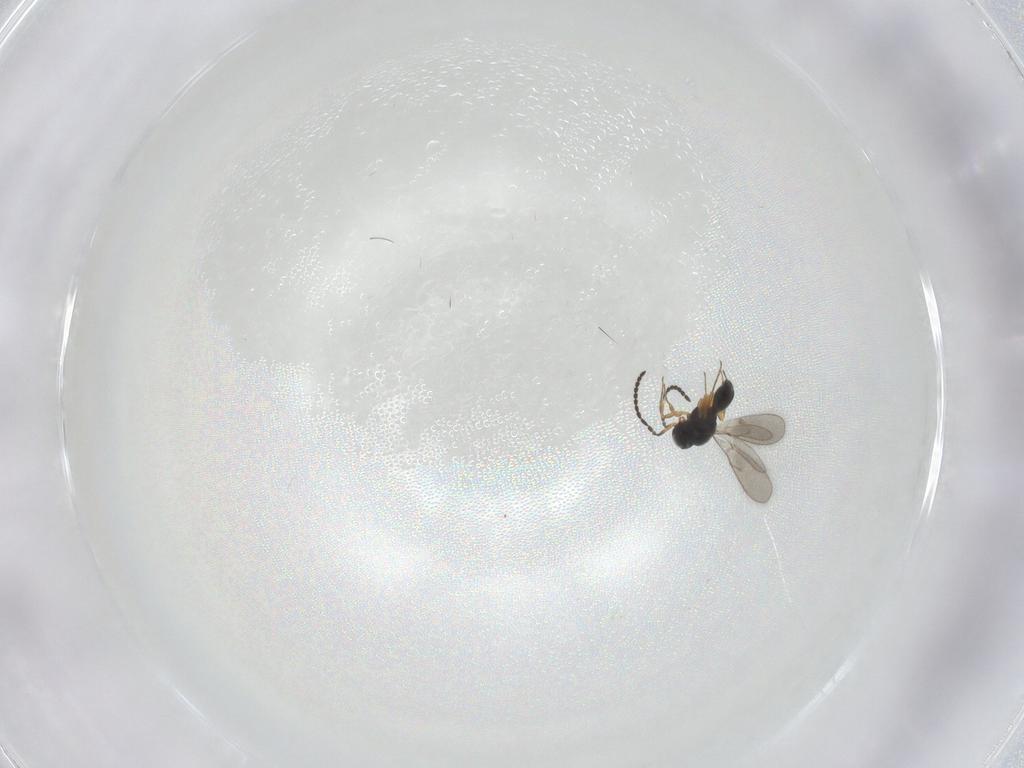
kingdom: Animalia
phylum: Arthropoda
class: Insecta
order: Hymenoptera
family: Scelionidae
